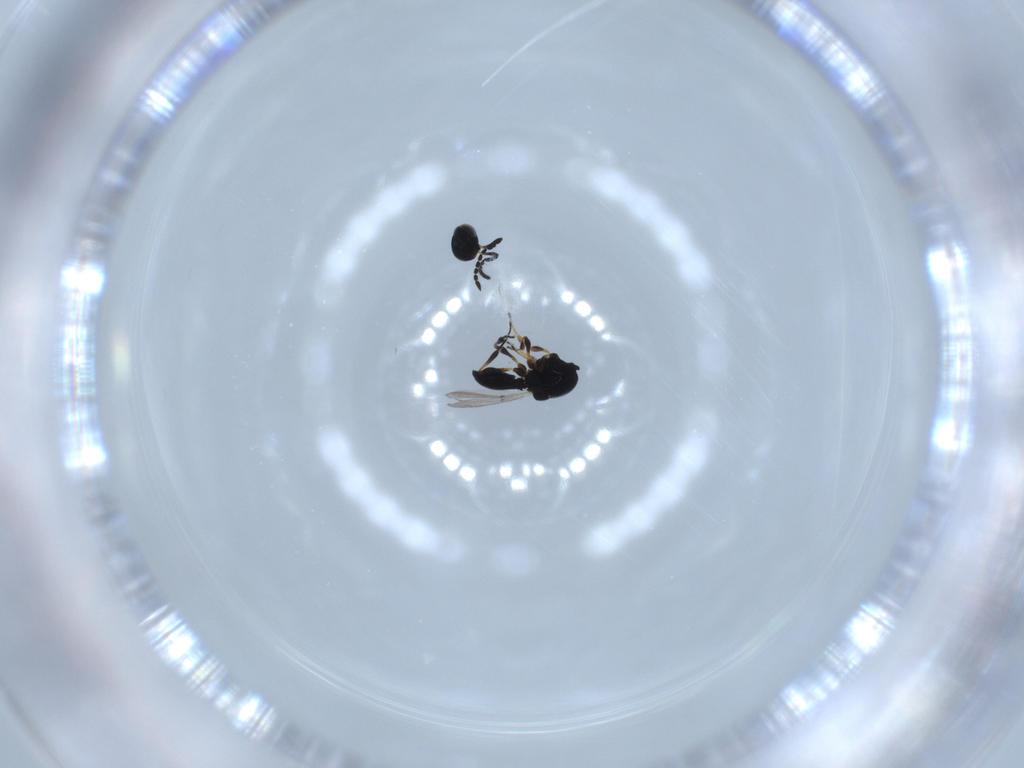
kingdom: Animalia
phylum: Arthropoda
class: Insecta
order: Hymenoptera
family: Platygastridae
